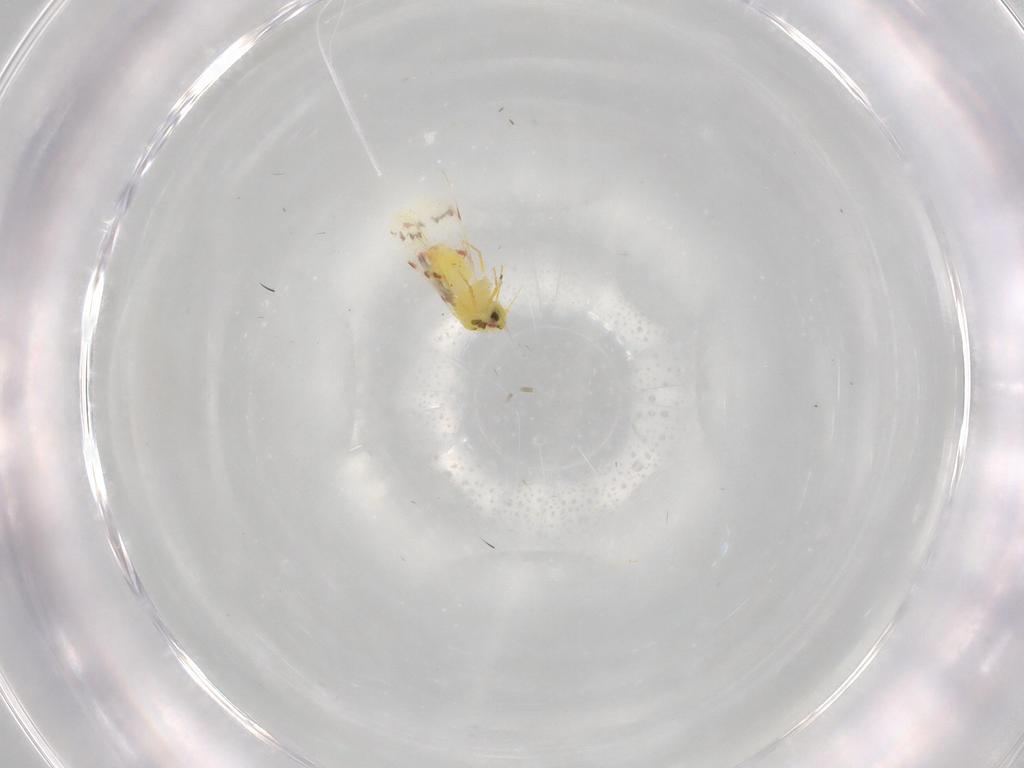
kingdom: Animalia
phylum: Arthropoda
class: Insecta
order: Hemiptera
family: Aleyrodidae
